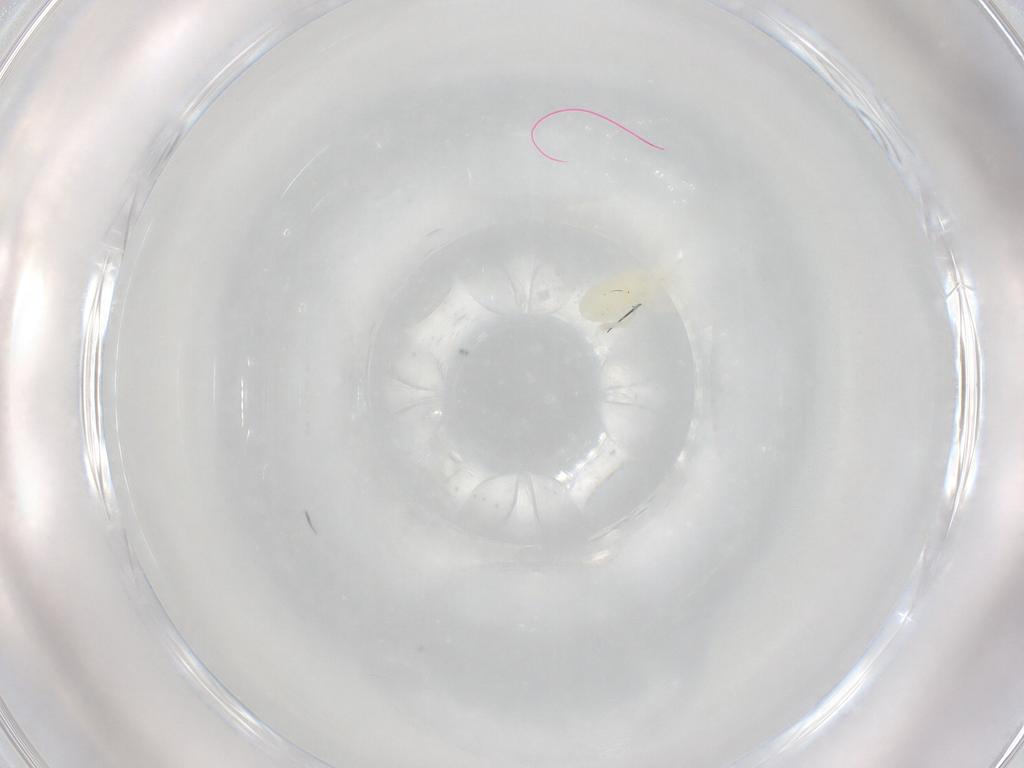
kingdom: Animalia
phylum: Arthropoda
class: Arachnida
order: Trombidiformes
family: Rhagidiidae
